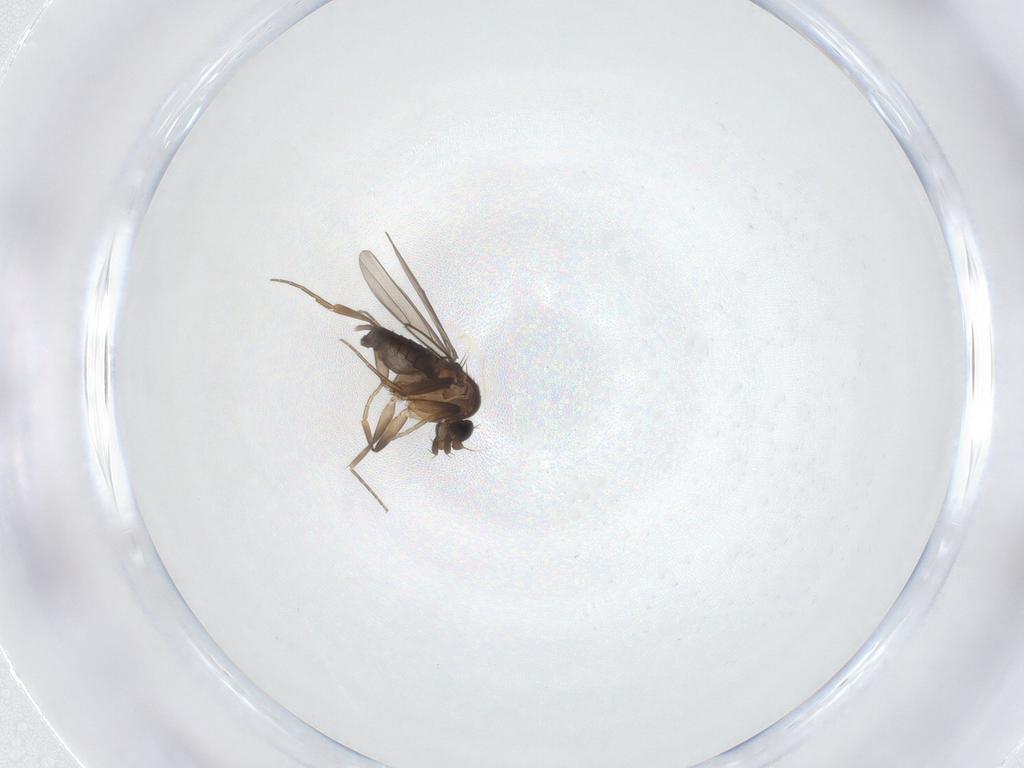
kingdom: Animalia
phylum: Arthropoda
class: Insecta
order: Diptera
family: Phoridae
